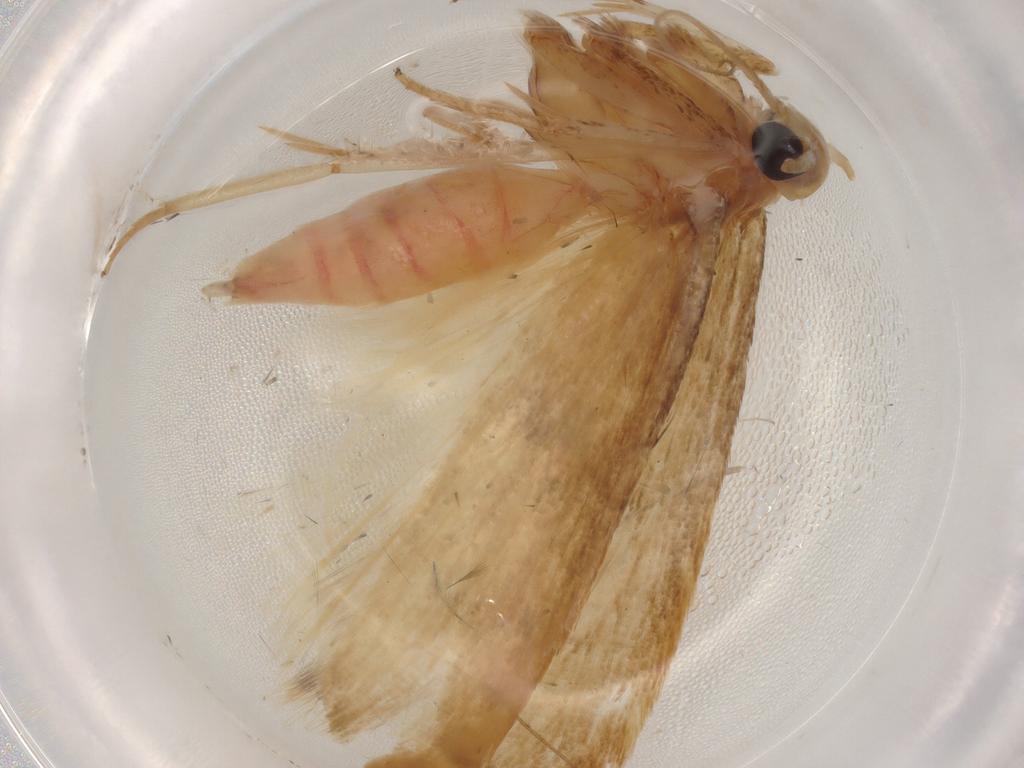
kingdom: Animalia
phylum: Arthropoda
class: Insecta
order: Lepidoptera
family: Gelechiidae
